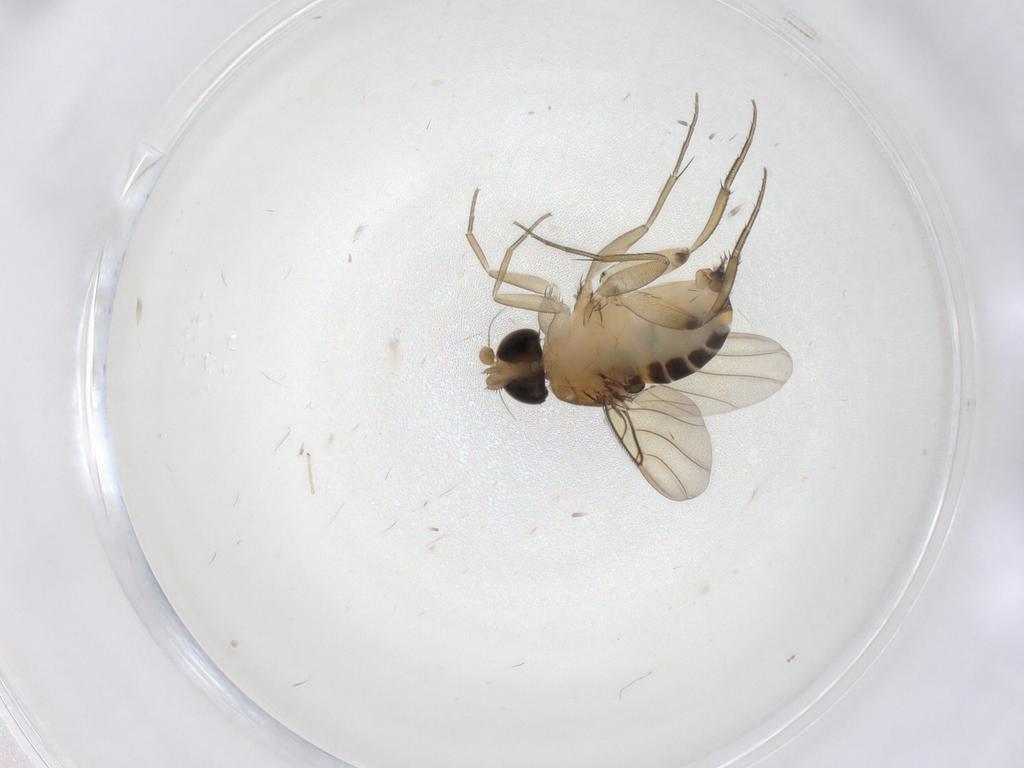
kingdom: Animalia
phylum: Arthropoda
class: Insecta
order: Diptera
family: Phoridae
